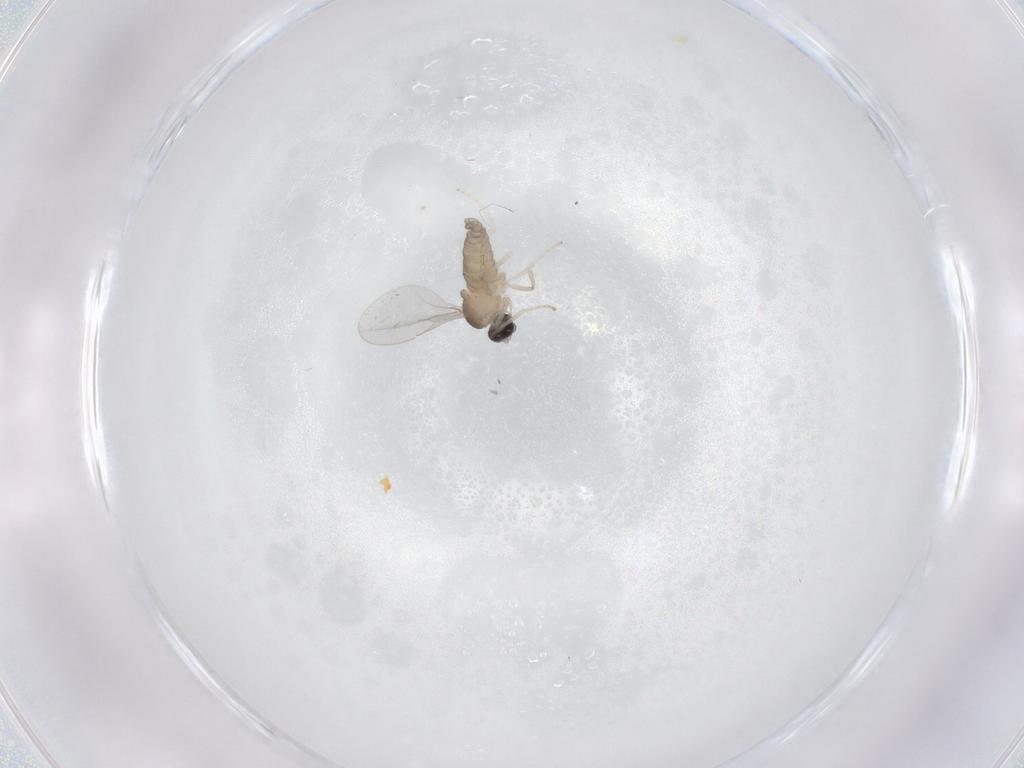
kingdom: Animalia
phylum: Arthropoda
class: Insecta
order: Diptera
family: Cecidomyiidae
